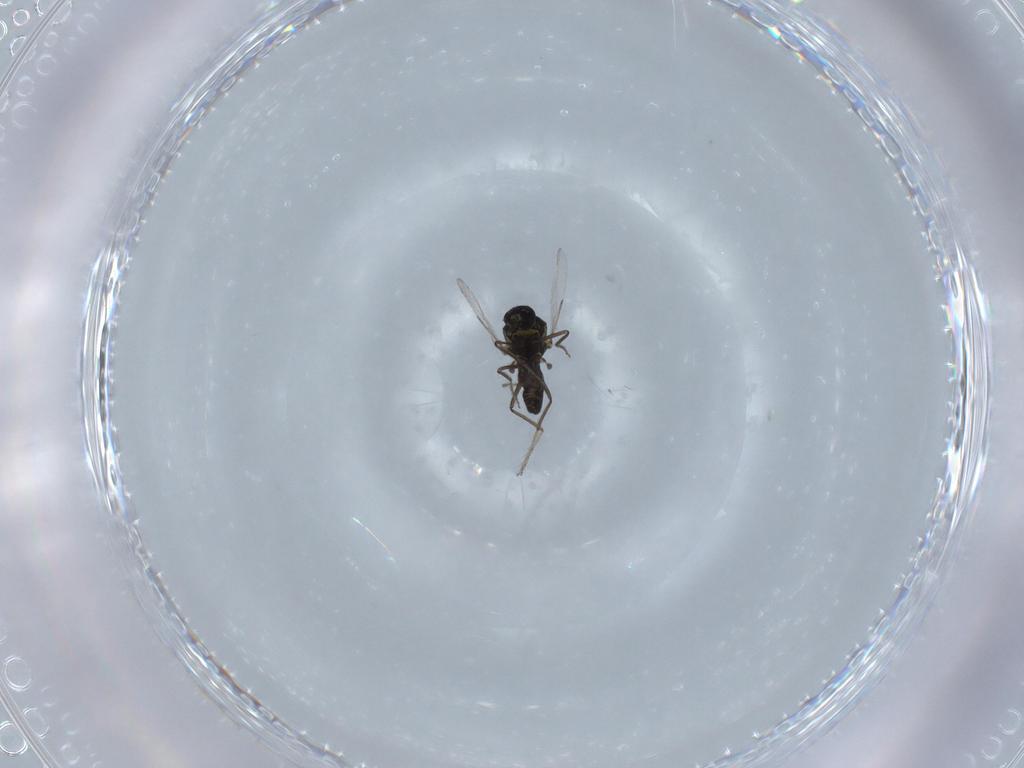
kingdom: Animalia
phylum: Arthropoda
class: Insecta
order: Diptera
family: Ceratopogonidae
